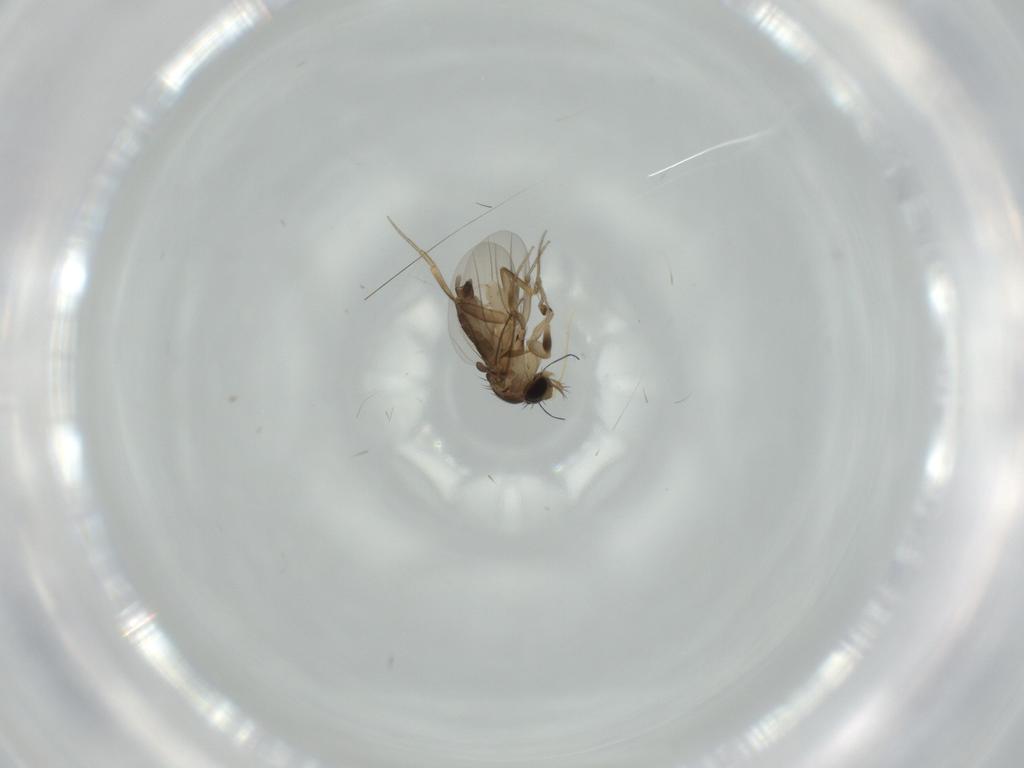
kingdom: Animalia
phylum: Arthropoda
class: Insecta
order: Diptera
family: Phoridae
